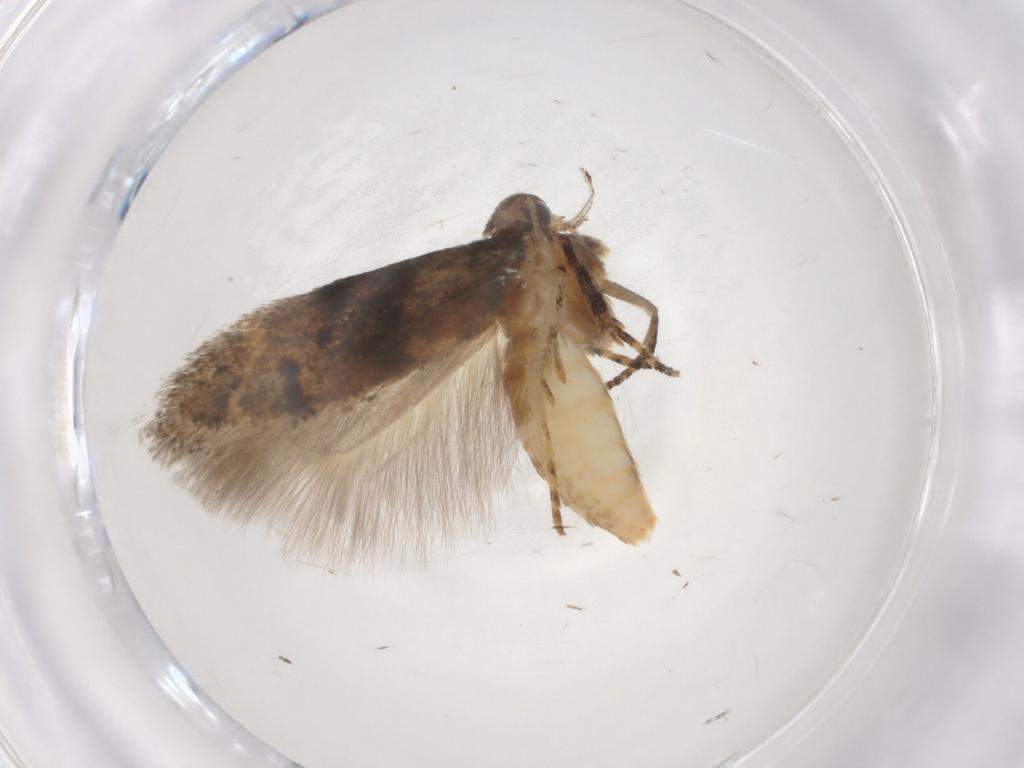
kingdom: Animalia
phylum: Arthropoda
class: Insecta
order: Lepidoptera
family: Gelechiidae
